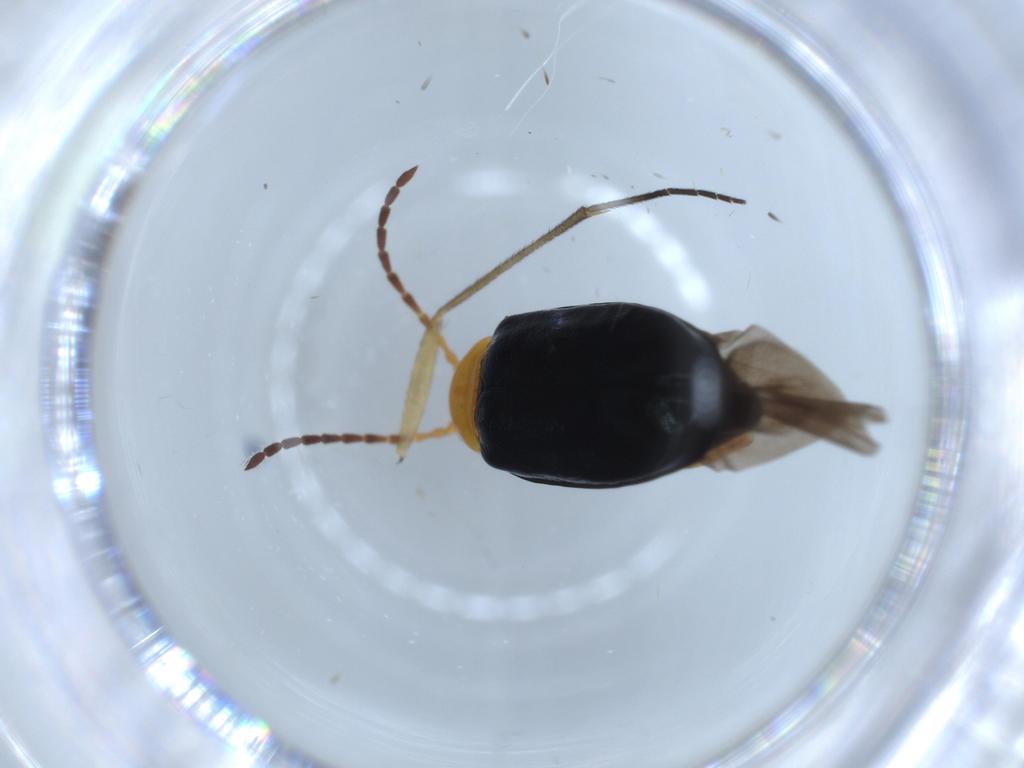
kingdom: Animalia
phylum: Arthropoda
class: Insecta
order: Coleoptera
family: Chrysomelidae
